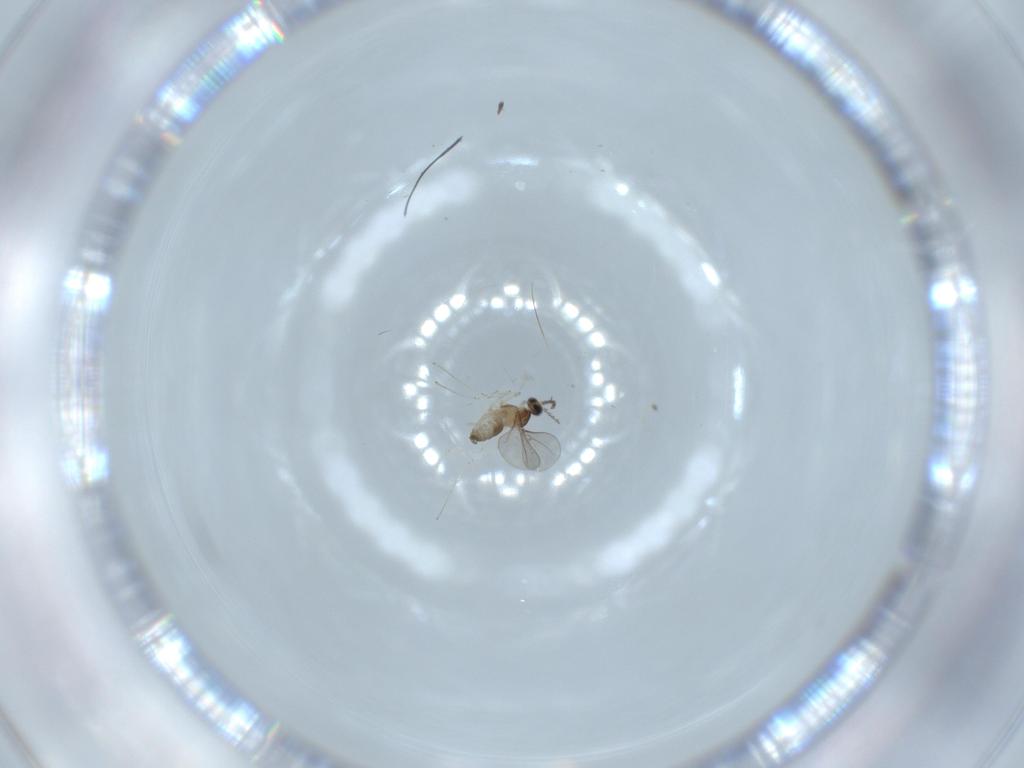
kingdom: Animalia
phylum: Arthropoda
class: Insecta
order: Diptera
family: Cecidomyiidae
